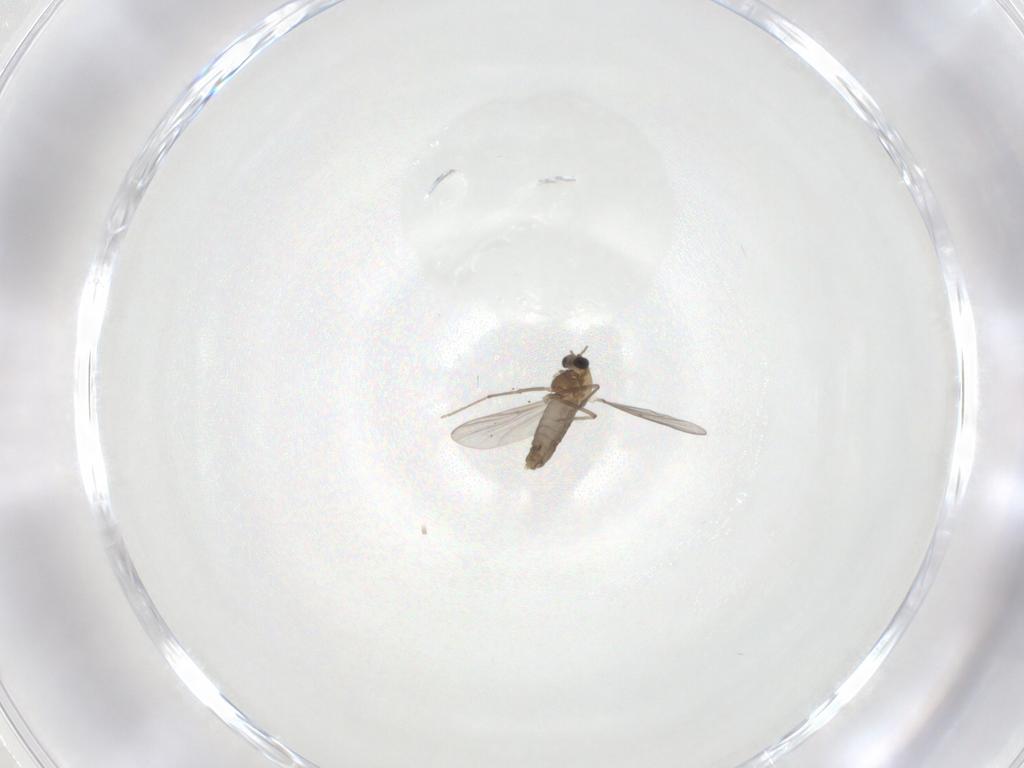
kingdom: Animalia
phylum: Arthropoda
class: Insecta
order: Diptera
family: Chironomidae
